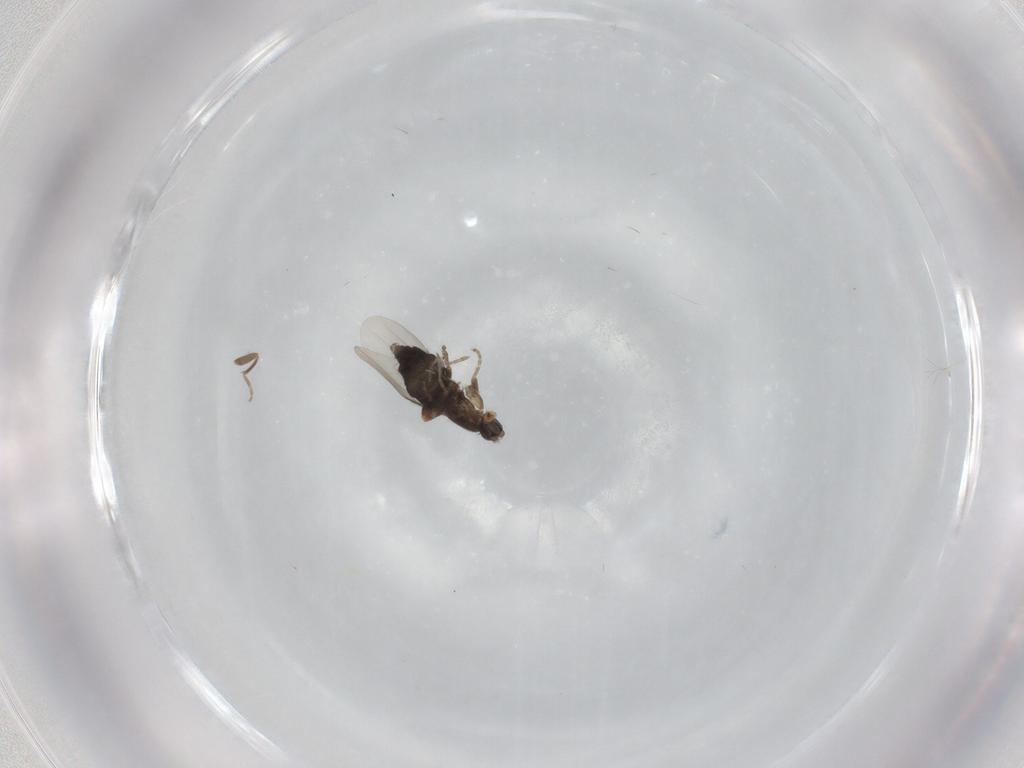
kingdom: Animalia
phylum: Arthropoda
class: Insecta
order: Diptera
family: Phoridae
